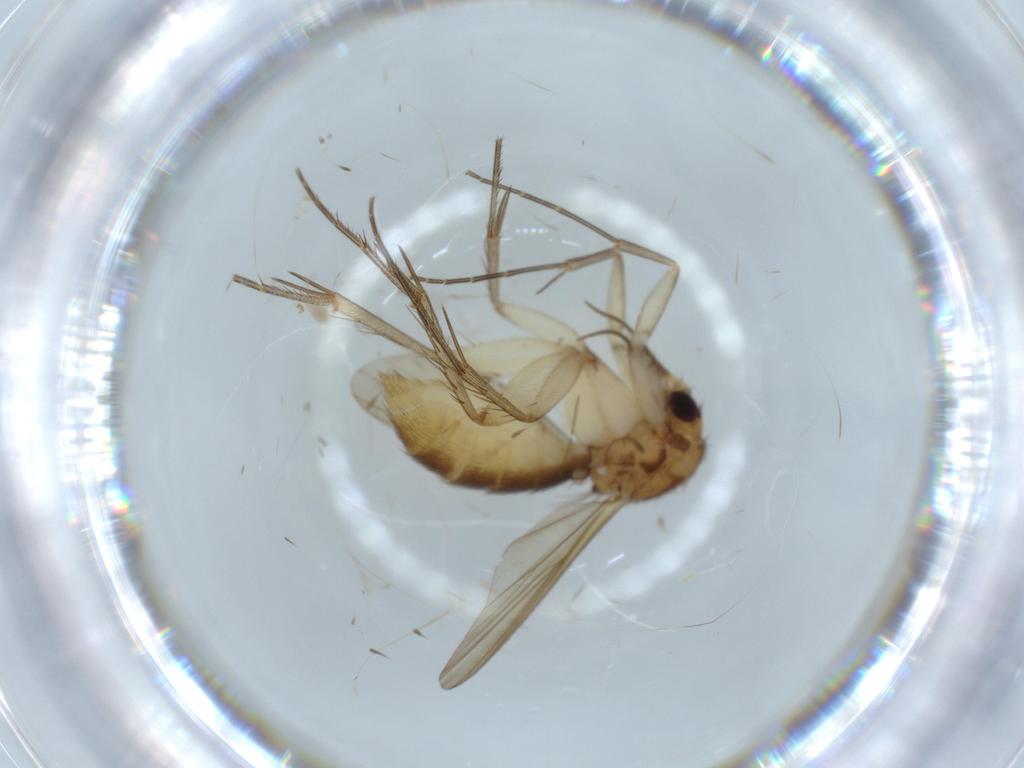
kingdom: Animalia
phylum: Arthropoda
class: Insecta
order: Diptera
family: Mycetophilidae
